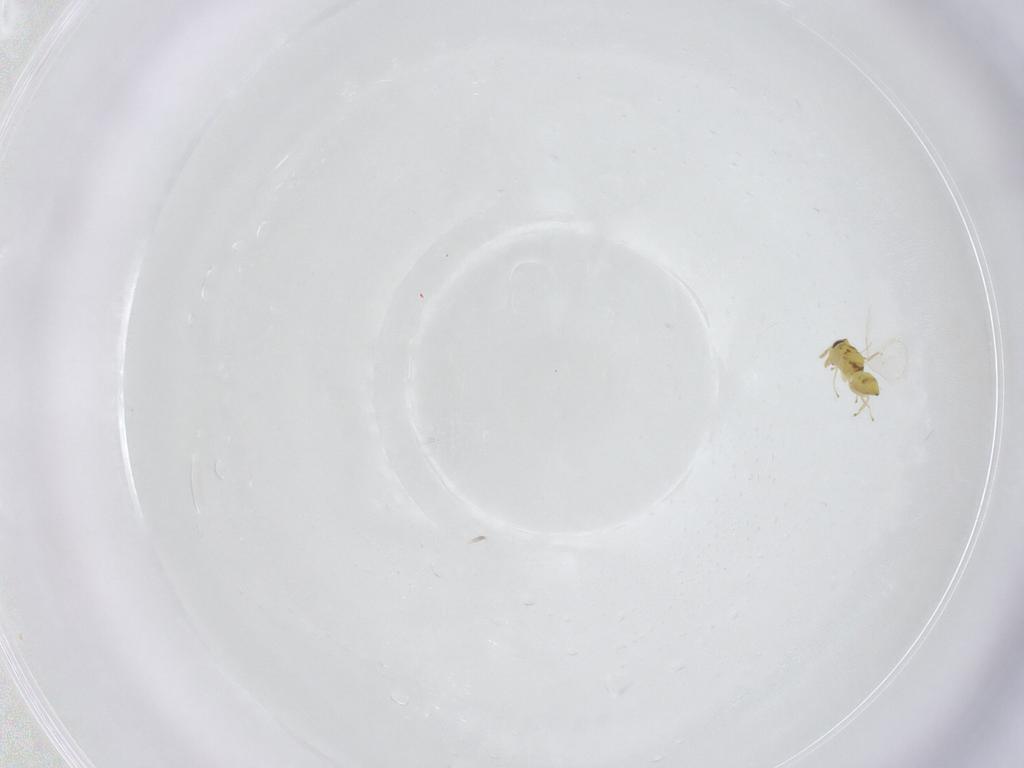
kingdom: Animalia
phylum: Arthropoda
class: Insecta
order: Hymenoptera
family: Eulophidae
